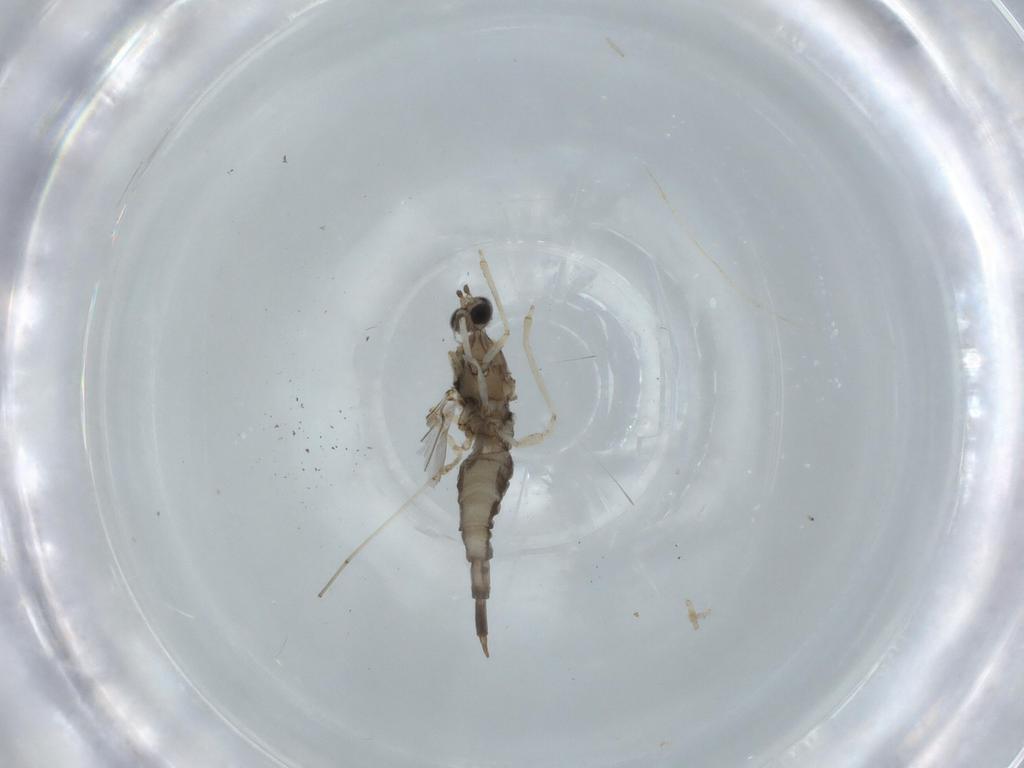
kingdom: Animalia
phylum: Arthropoda
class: Insecta
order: Diptera
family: Cecidomyiidae
